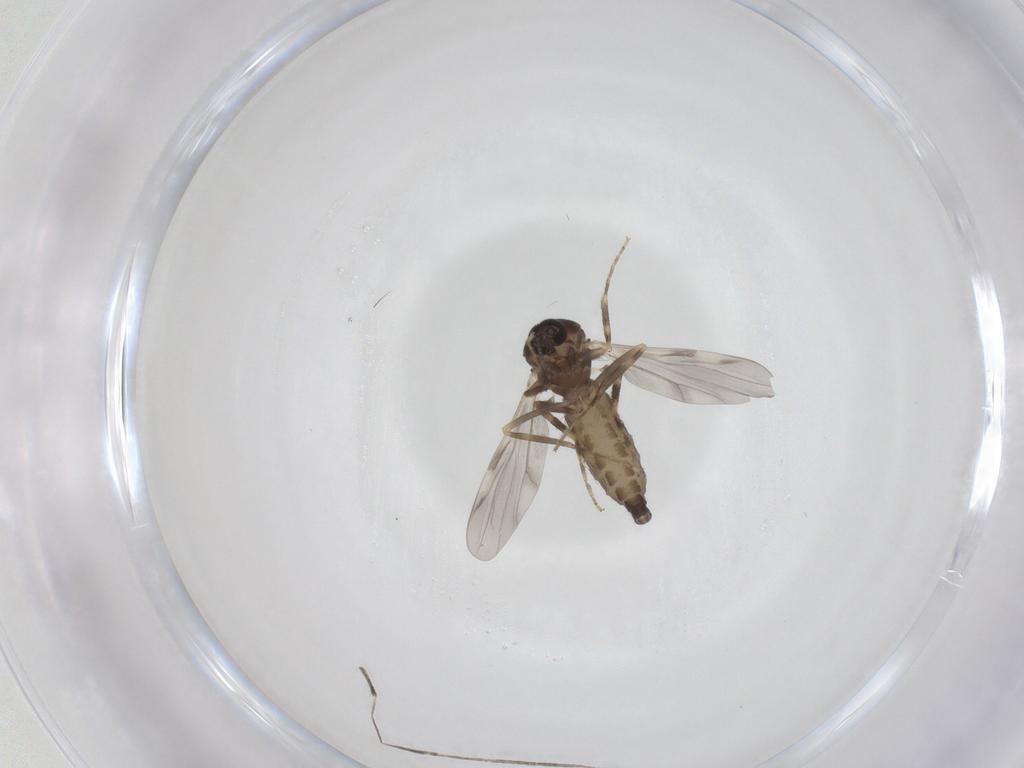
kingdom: Animalia
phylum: Arthropoda
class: Insecta
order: Diptera
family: Ceratopogonidae
